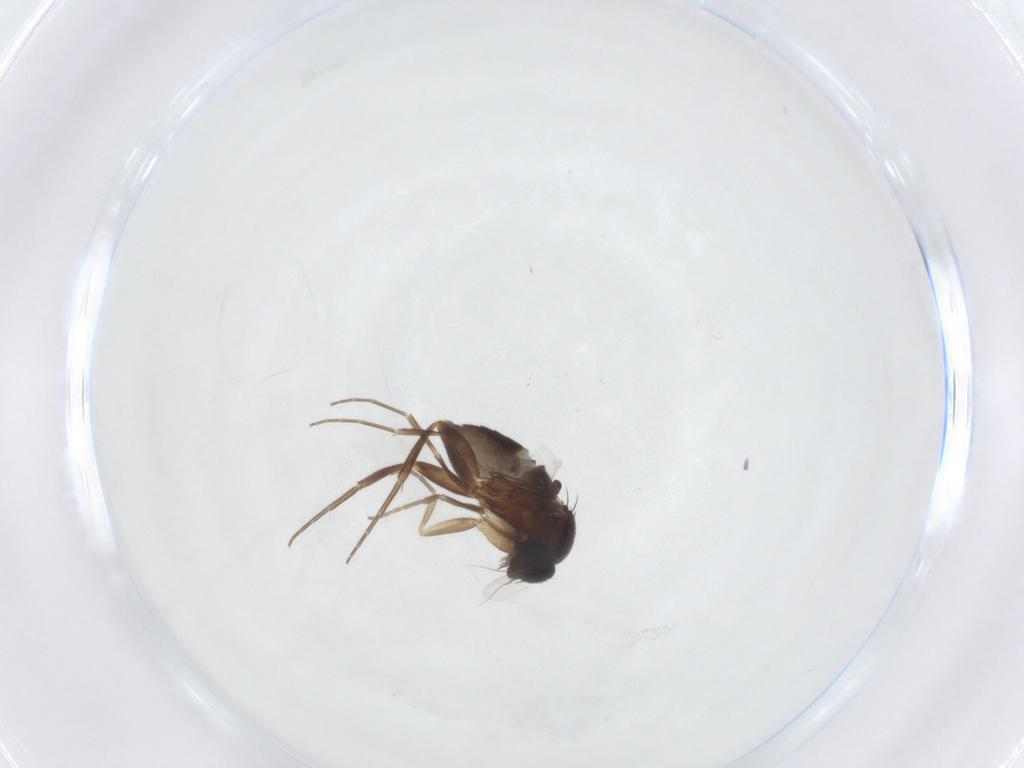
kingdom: Animalia
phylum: Arthropoda
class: Insecta
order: Diptera
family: Phoridae
